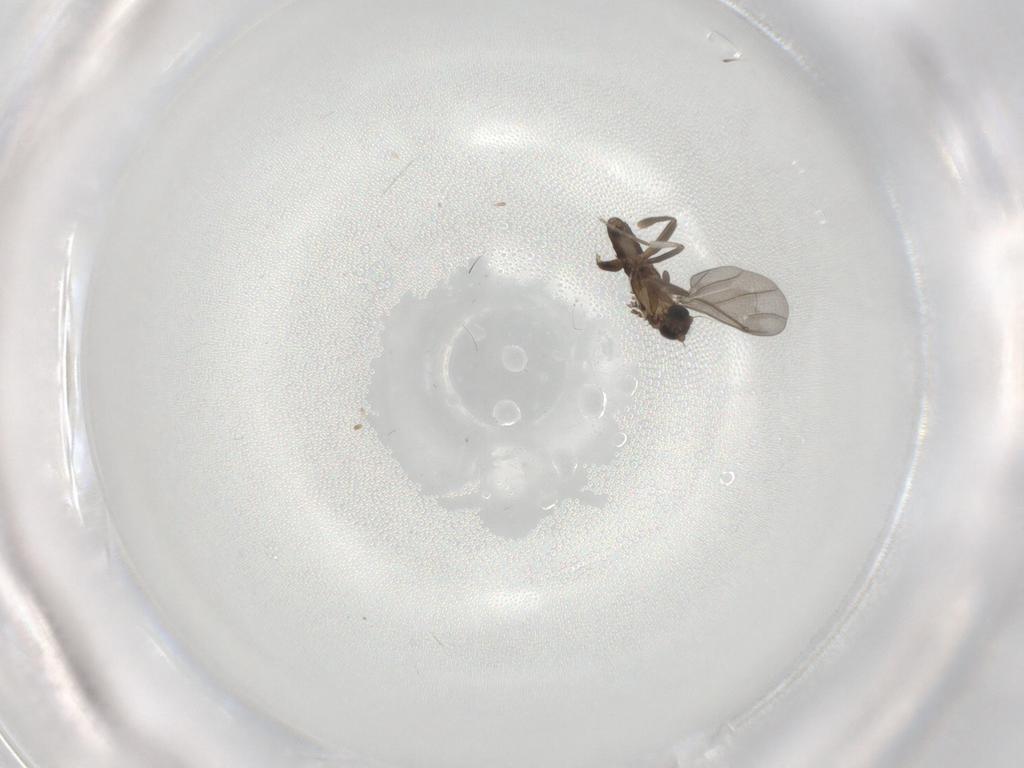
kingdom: Animalia
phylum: Arthropoda
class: Insecta
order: Diptera
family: Phoridae
